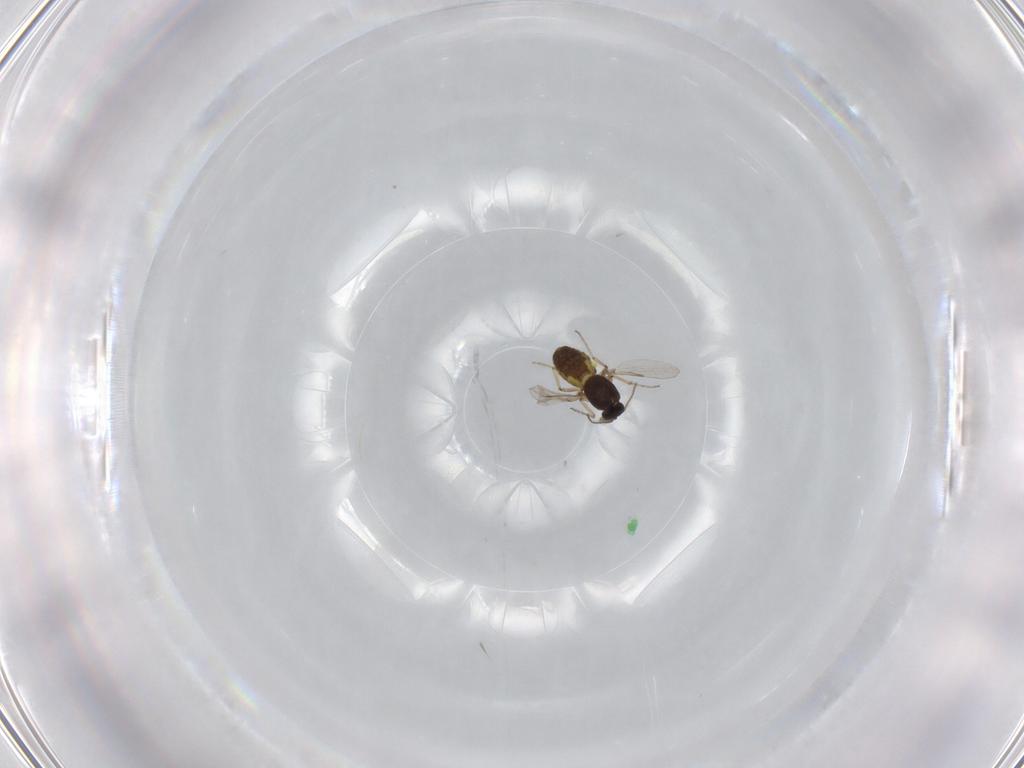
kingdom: Animalia
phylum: Arthropoda
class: Insecta
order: Diptera
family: Ceratopogonidae
